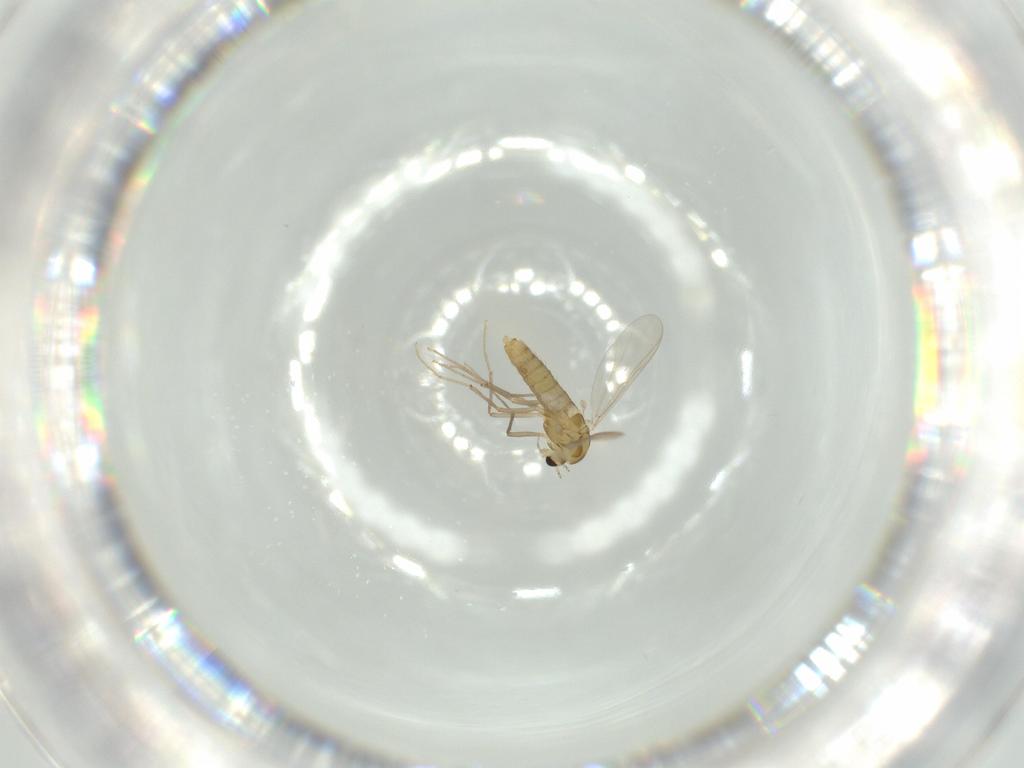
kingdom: Animalia
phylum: Arthropoda
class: Insecta
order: Diptera
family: Chironomidae
